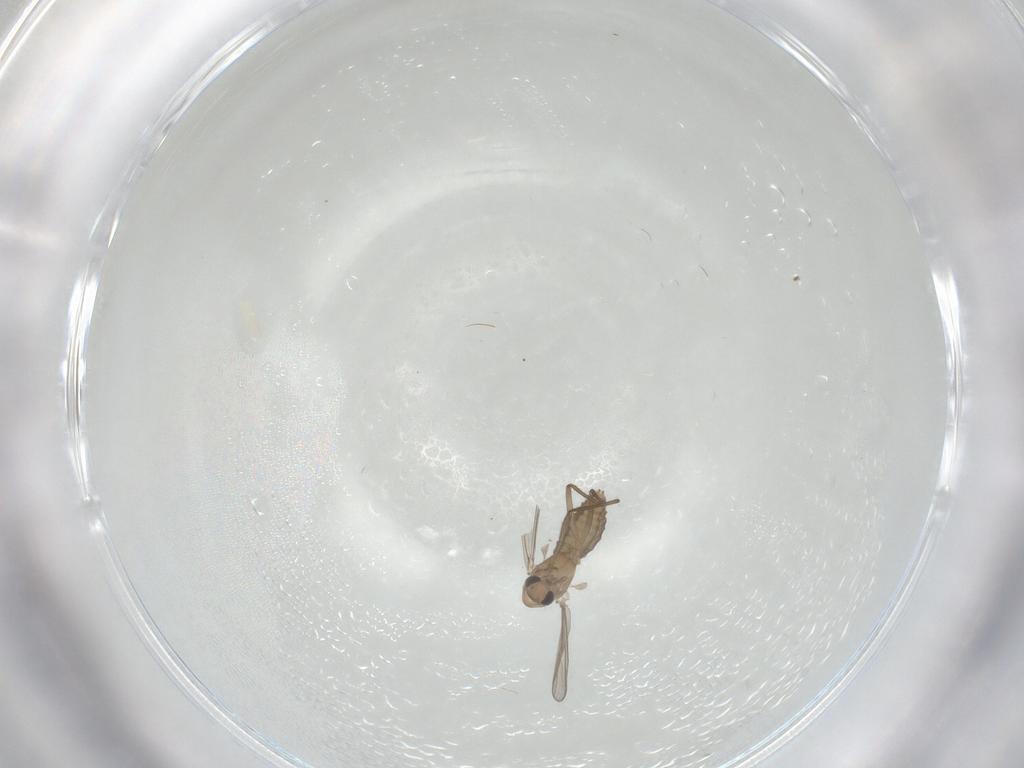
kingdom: Animalia
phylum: Arthropoda
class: Insecta
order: Diptera
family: Chironomidae
